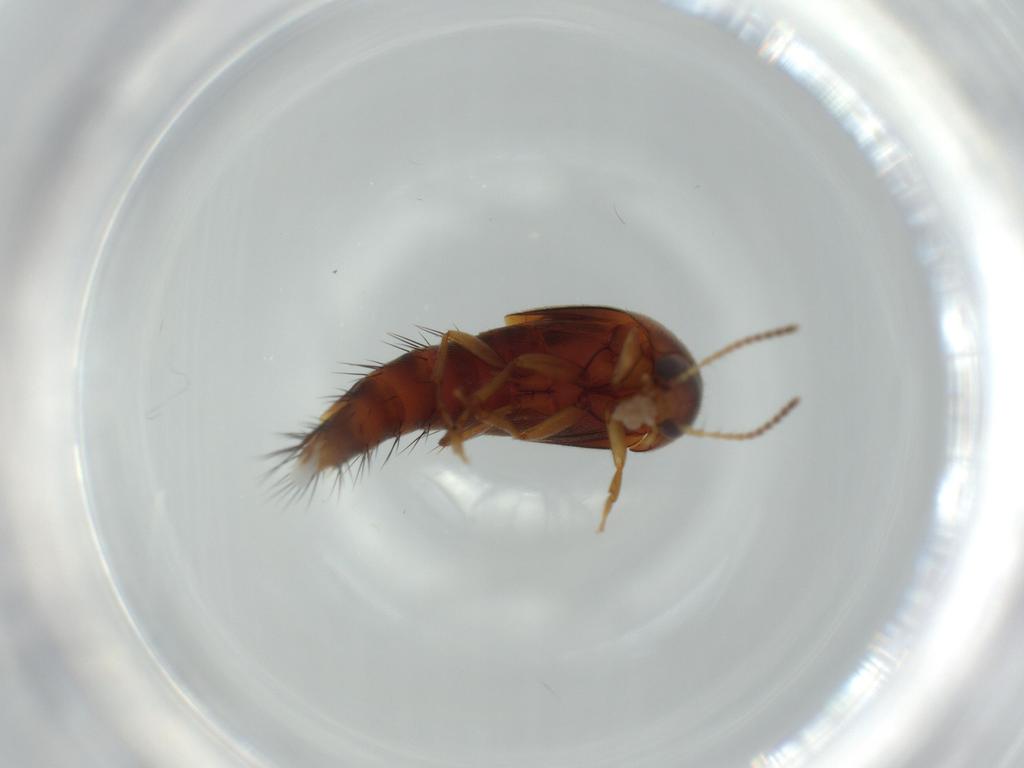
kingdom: Animalia
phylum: Arthropoda
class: Insecta
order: Coleoptera
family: Staphylinidae
